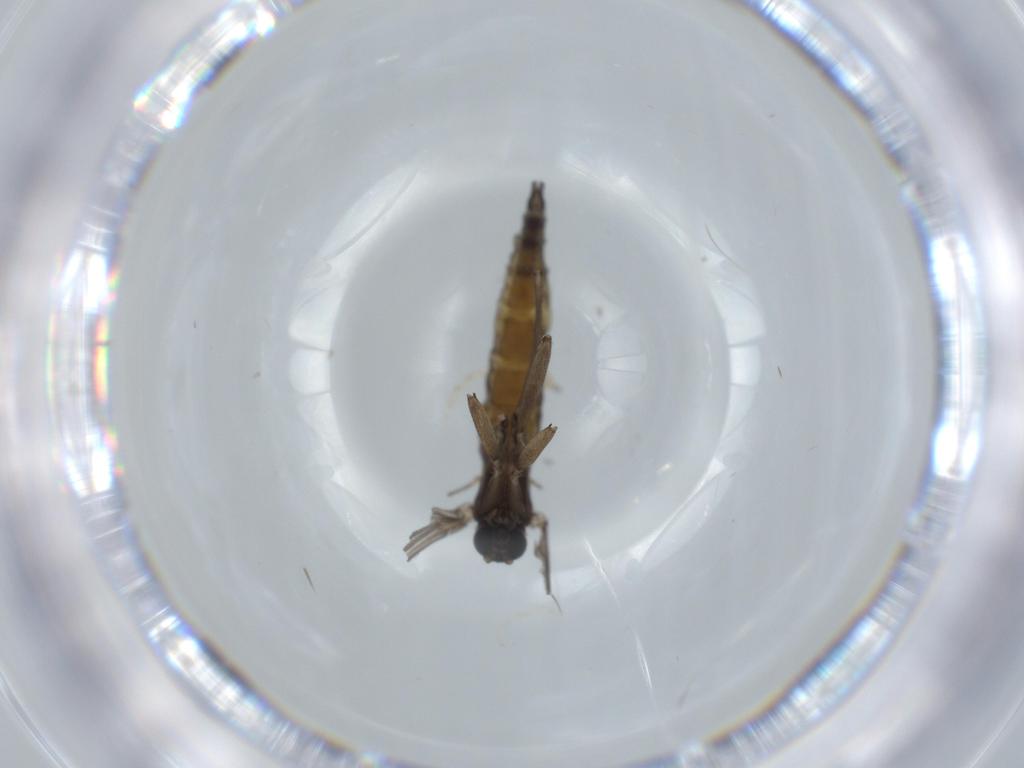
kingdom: Animalia
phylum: Arthropoda
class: Insecta
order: Diptera
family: Sciaridae
